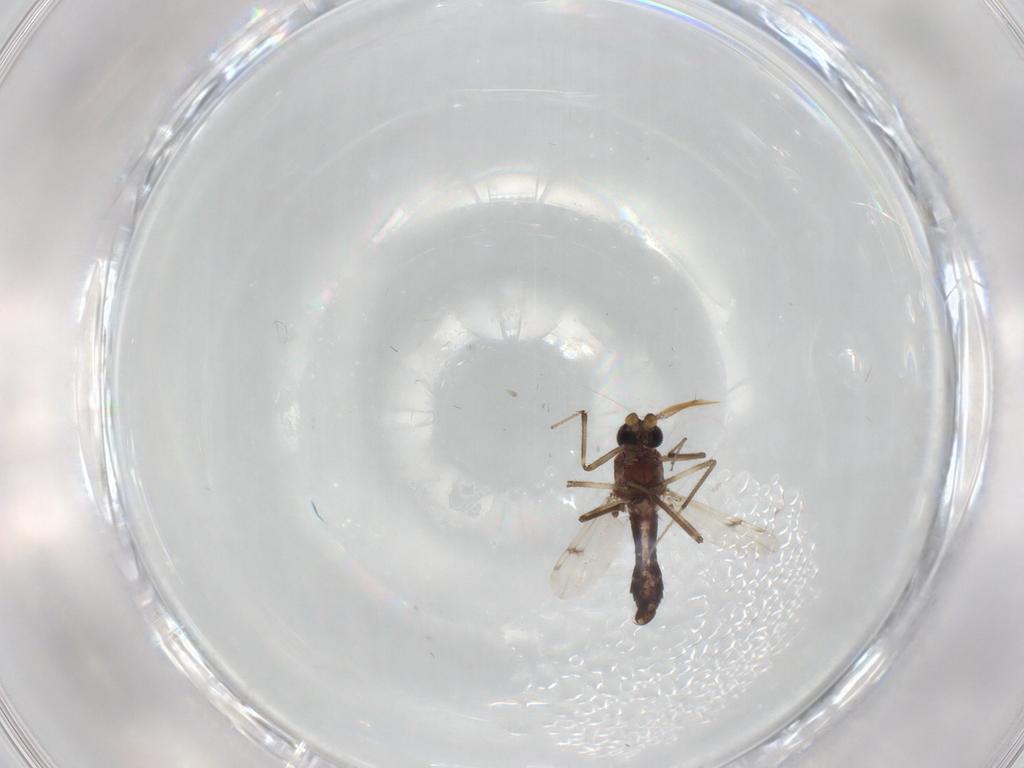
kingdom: Animalia
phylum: Arthropoda
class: Insecta
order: Diptera
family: Ceratopogonidae
